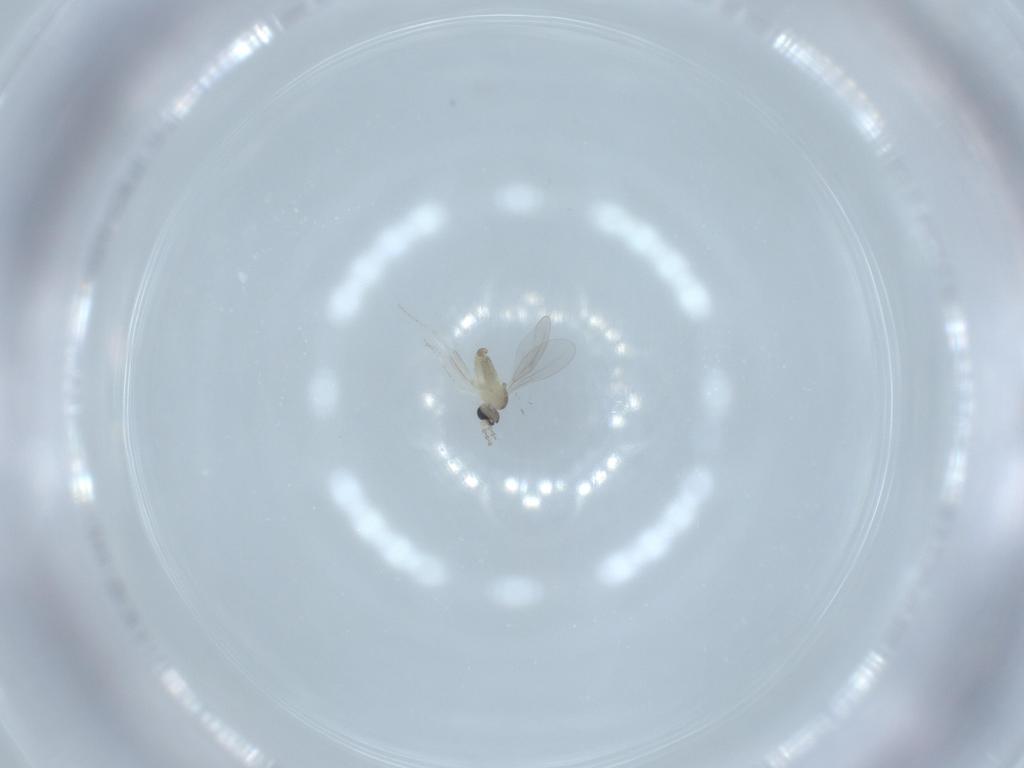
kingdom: Animalia
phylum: Arthropoda
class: Insecta
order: Diptera
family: Cecidomyiidae
